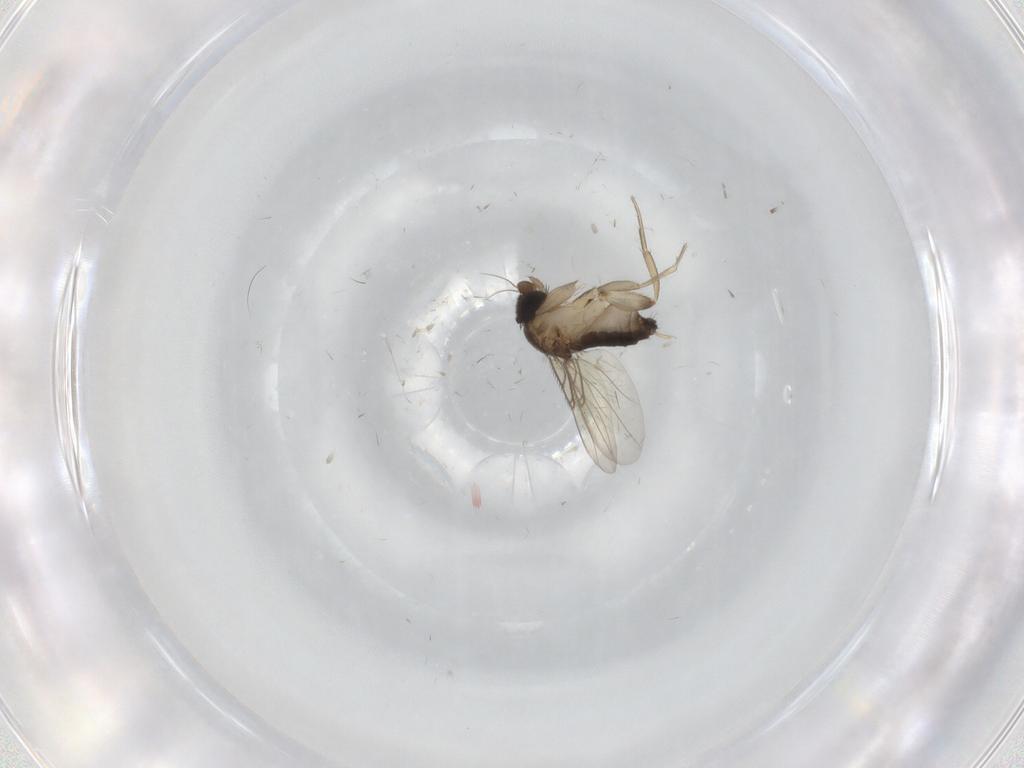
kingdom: Animalia
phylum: Arthropoda
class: Insecta
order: Diptera
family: Phoridae
